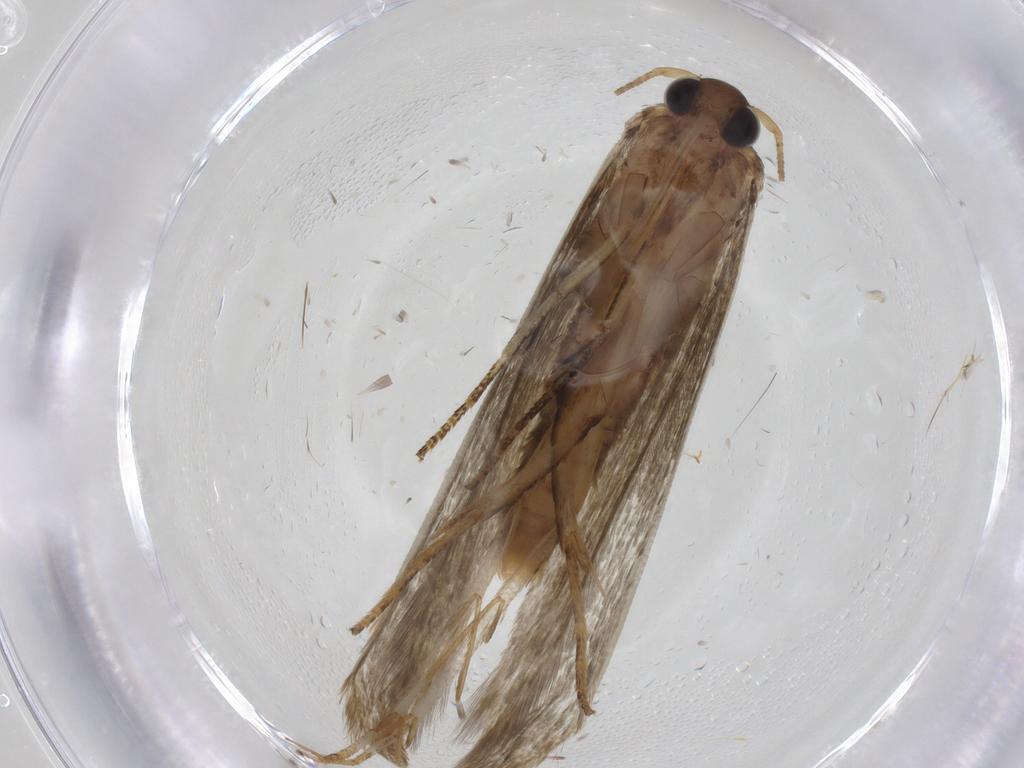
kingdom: Animalia
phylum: Arthropoda
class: Insecta
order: Lepidoptera
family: Blastobasidae
